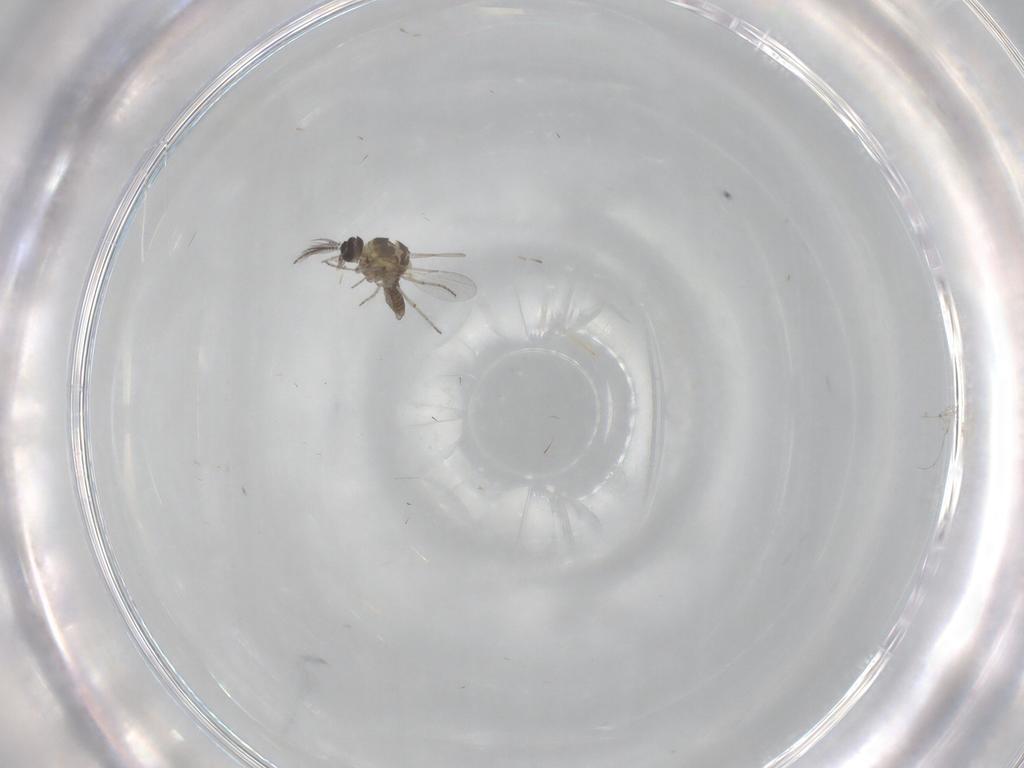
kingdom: Animalia
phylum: Arthropoda
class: Insecta
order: Diptera
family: Ceratopogonidae
